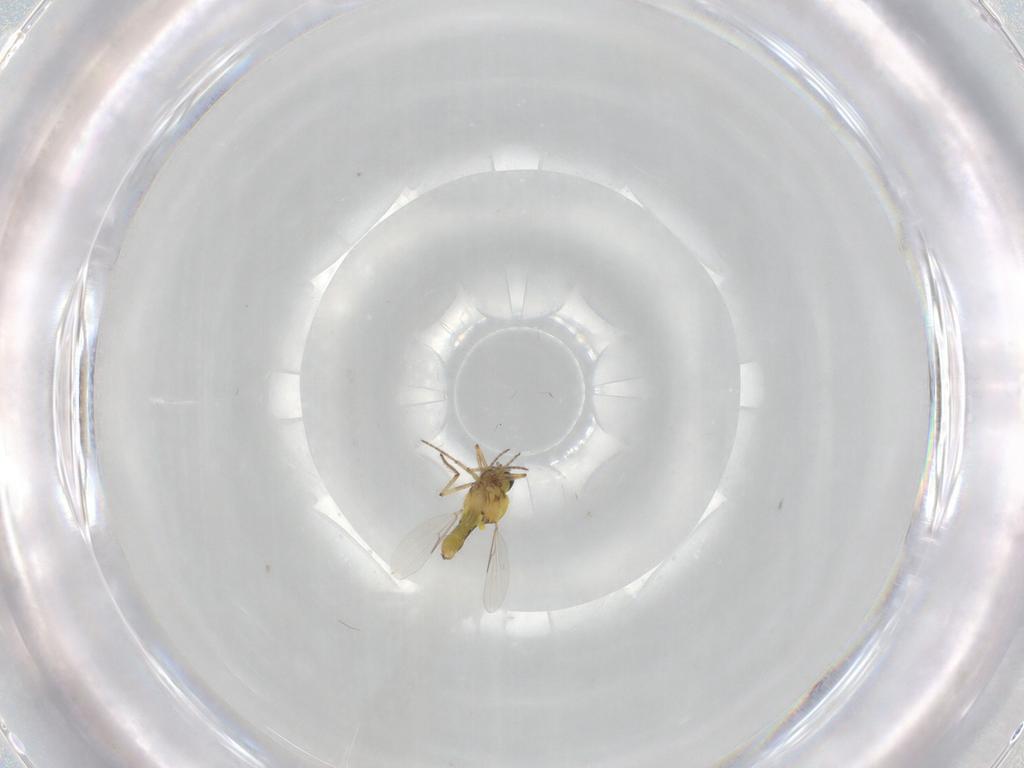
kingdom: Animalia
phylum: Arthropoda
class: Insecta
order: Diptera
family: Ceratopogonidae
